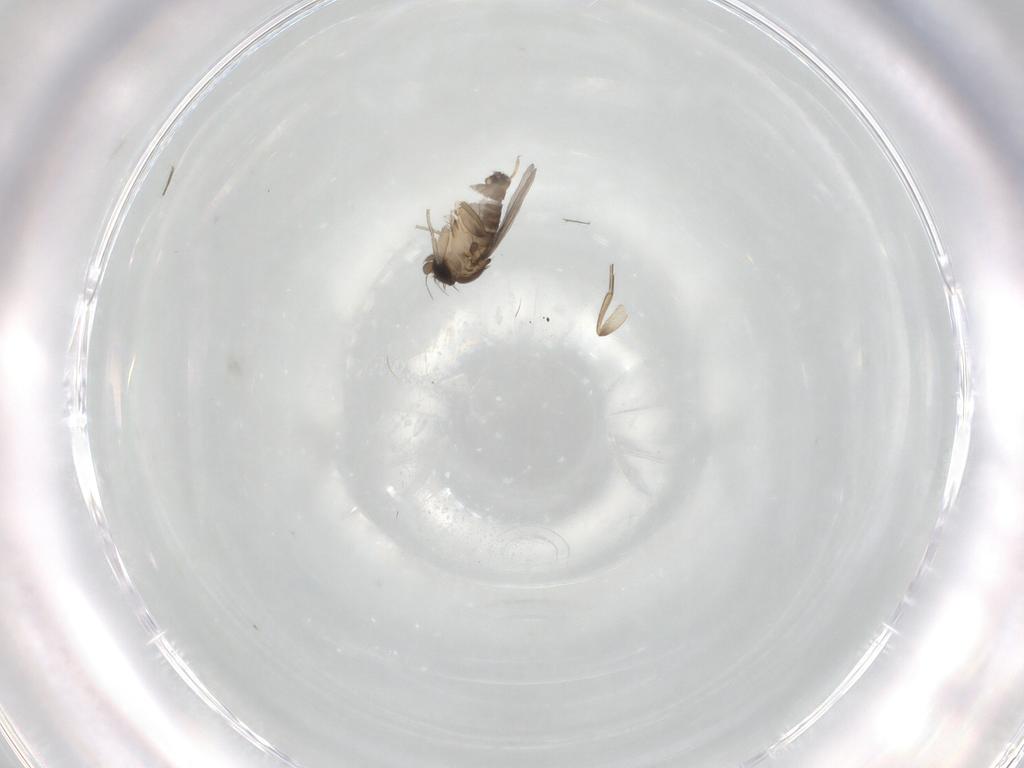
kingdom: Animalia
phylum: Arthropoda
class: Insecta
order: Diptera
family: Phoridae
